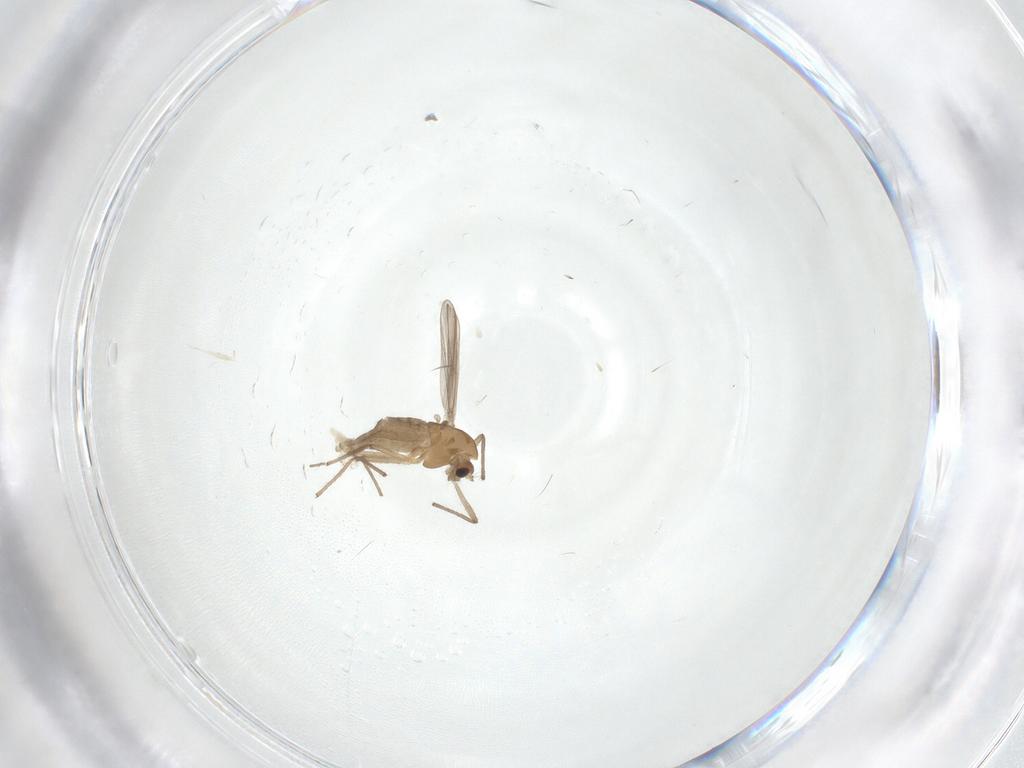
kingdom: Animalia
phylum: Arthropoda
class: Insecta
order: Diptera
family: Chironomidae
